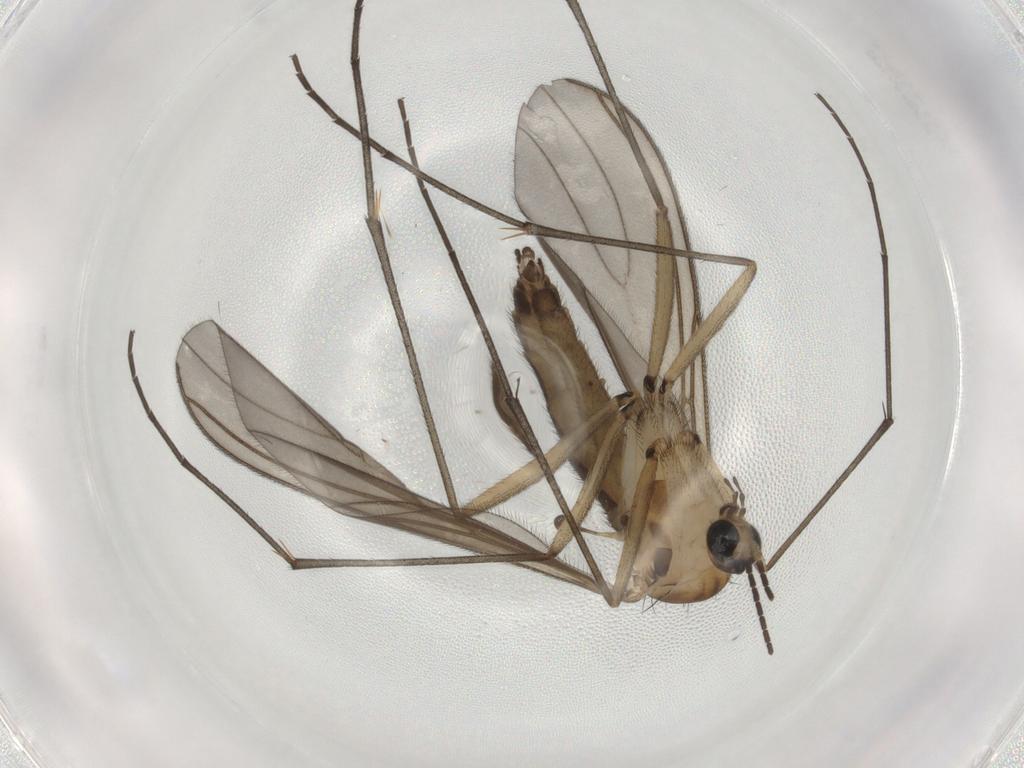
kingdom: Animalia
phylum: Arthropoda
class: Insecta
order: Diptera
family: Sciaridae
